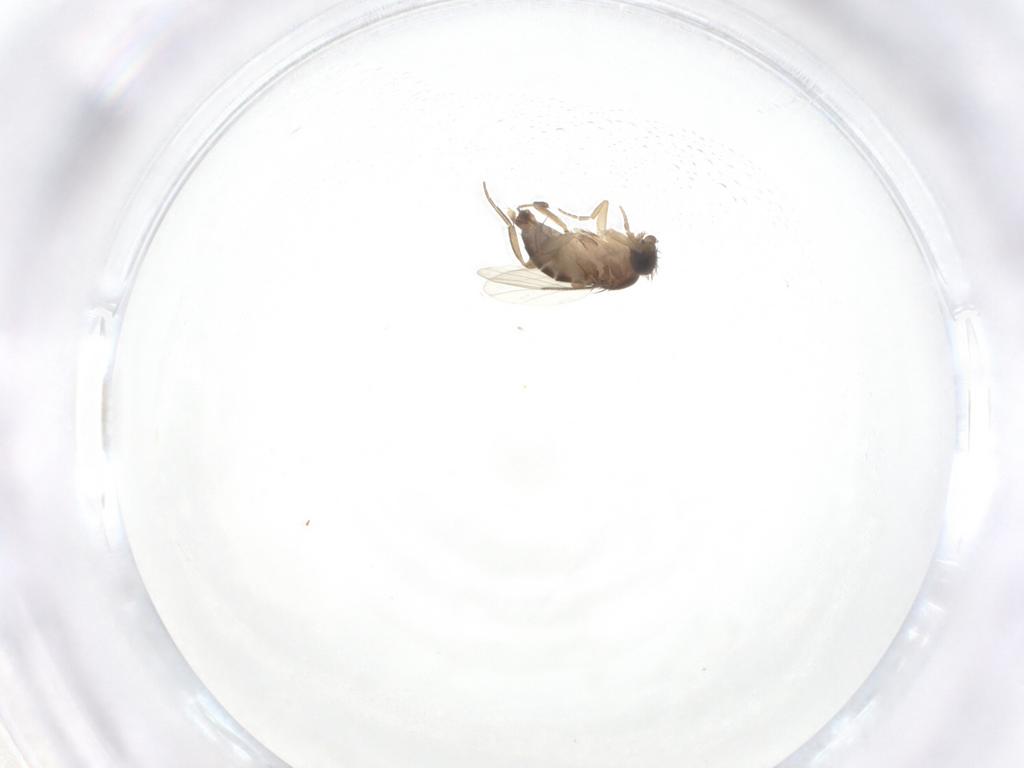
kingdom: Animalia
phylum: Arthropoda
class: Insecta
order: Diptera
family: Phoridae
